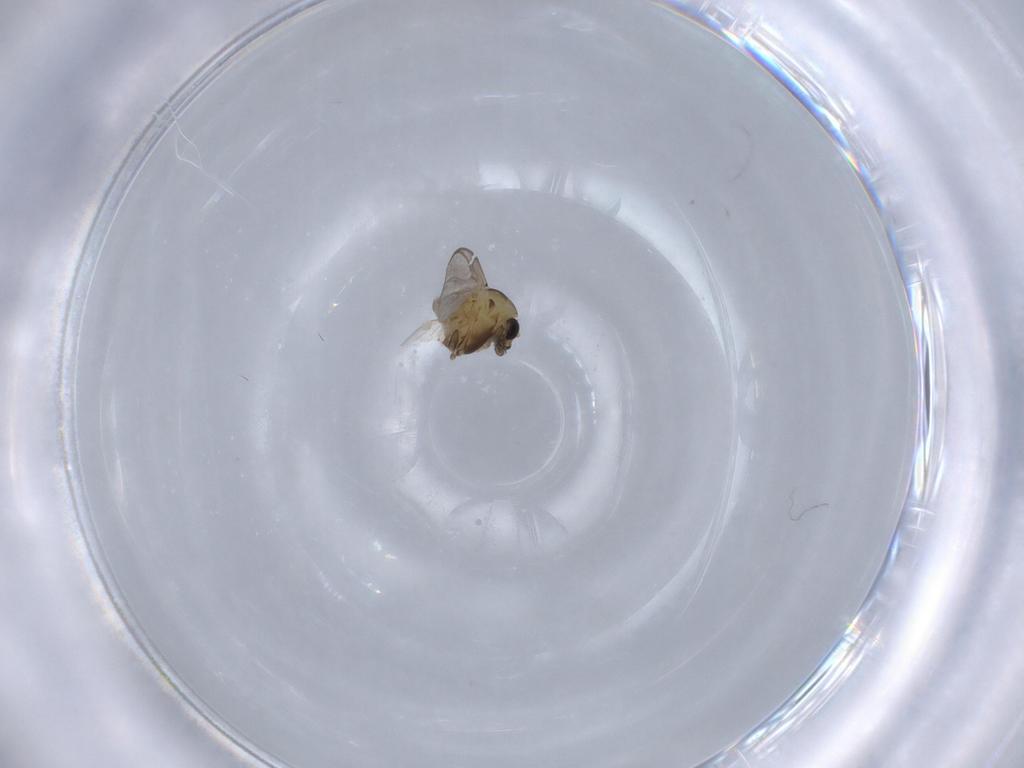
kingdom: Animalia
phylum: Arthropoda
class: Insecta
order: Diptera
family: Chironomidae
